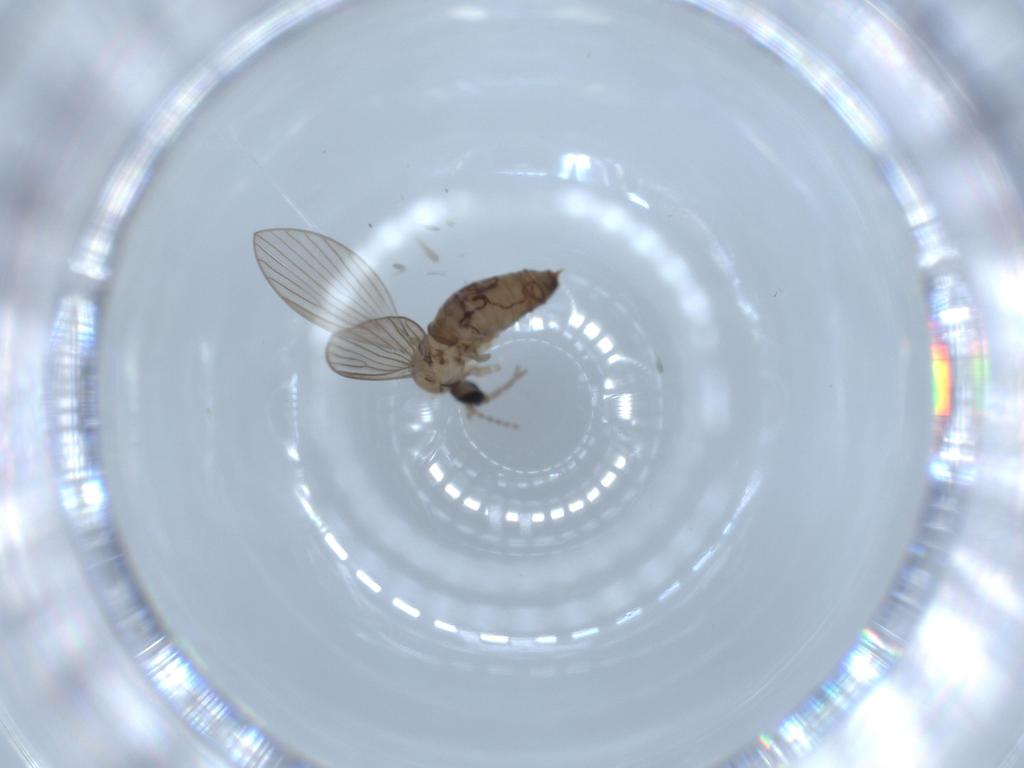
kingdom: Animalia
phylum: Arthropoda
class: Insecta
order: Diptera
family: Psychodidae
